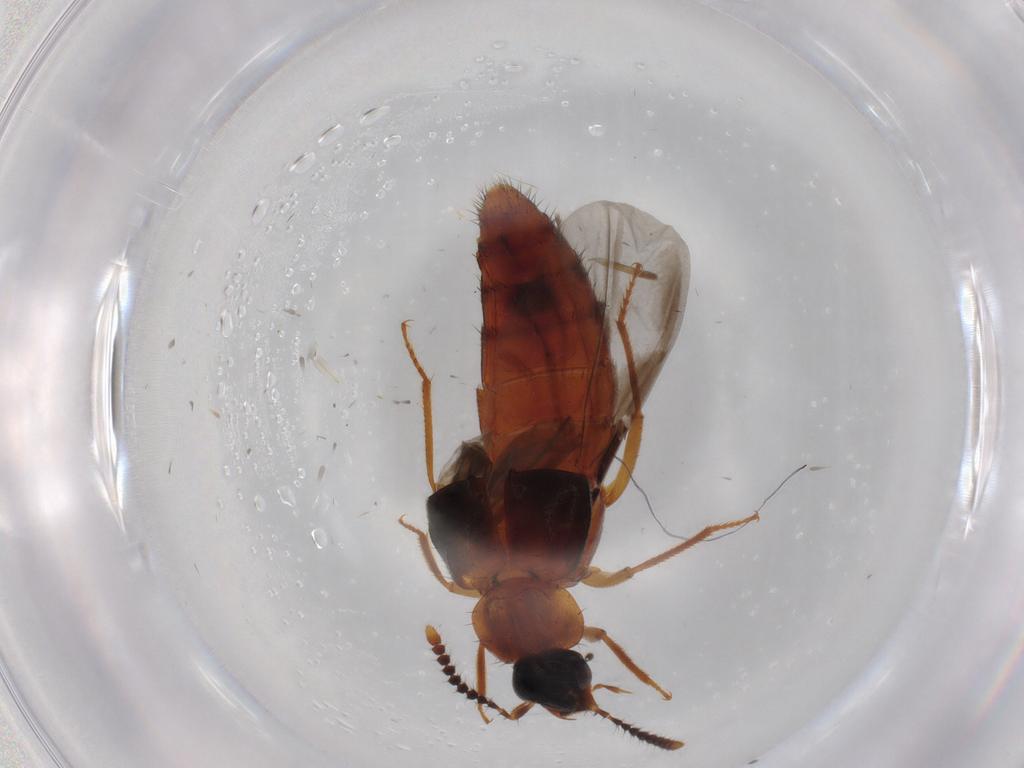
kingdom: Animalia
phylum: Arthropoda
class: Insecta
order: Coleoptera
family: Staphylinidae
